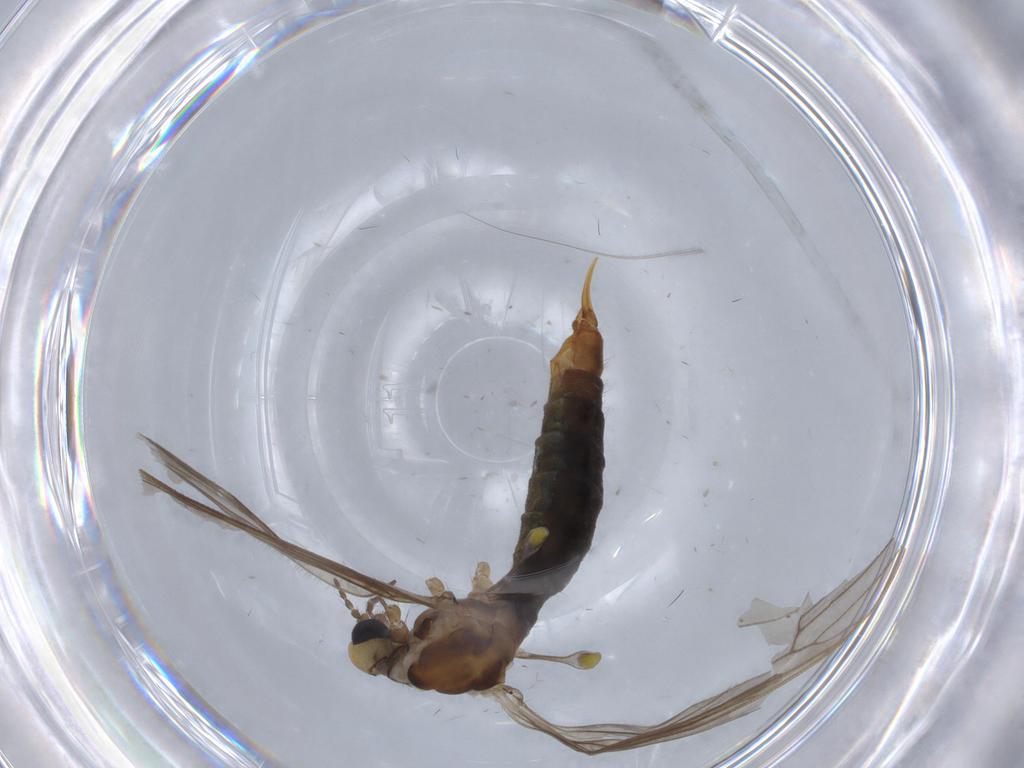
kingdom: Animalia
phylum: Arthropoda
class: Insecta
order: Diptera
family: Limoniidae
